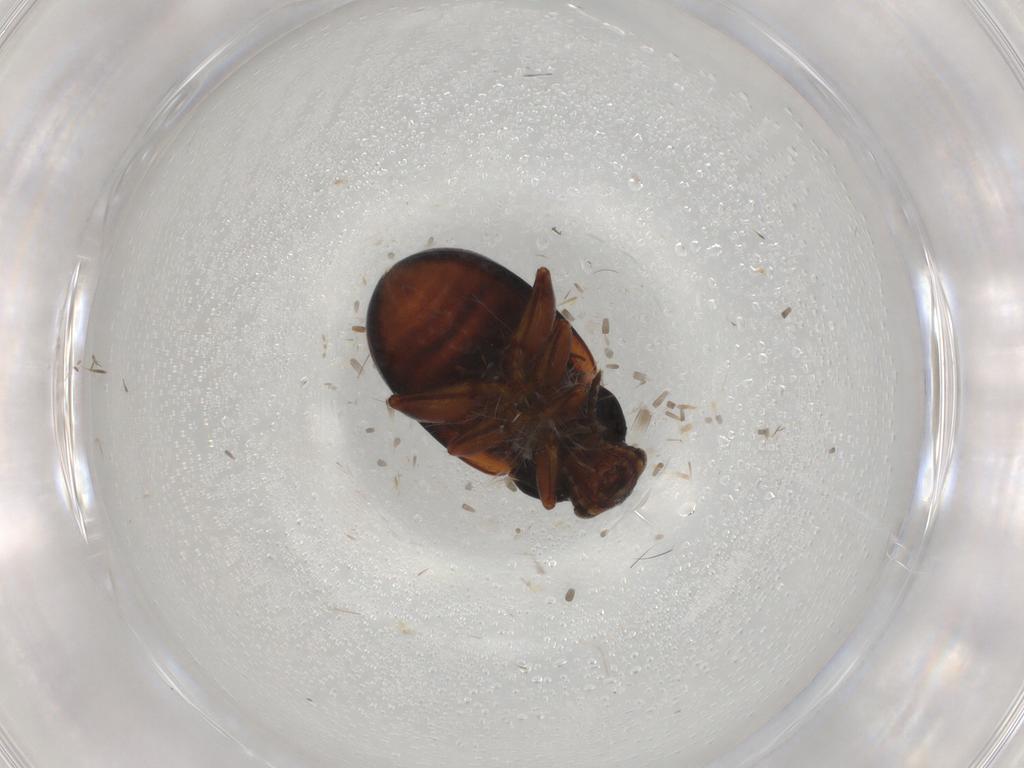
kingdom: Animalia
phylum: Arthropoda
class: Insecta
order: Coleoptera
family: Chrysomelidae
